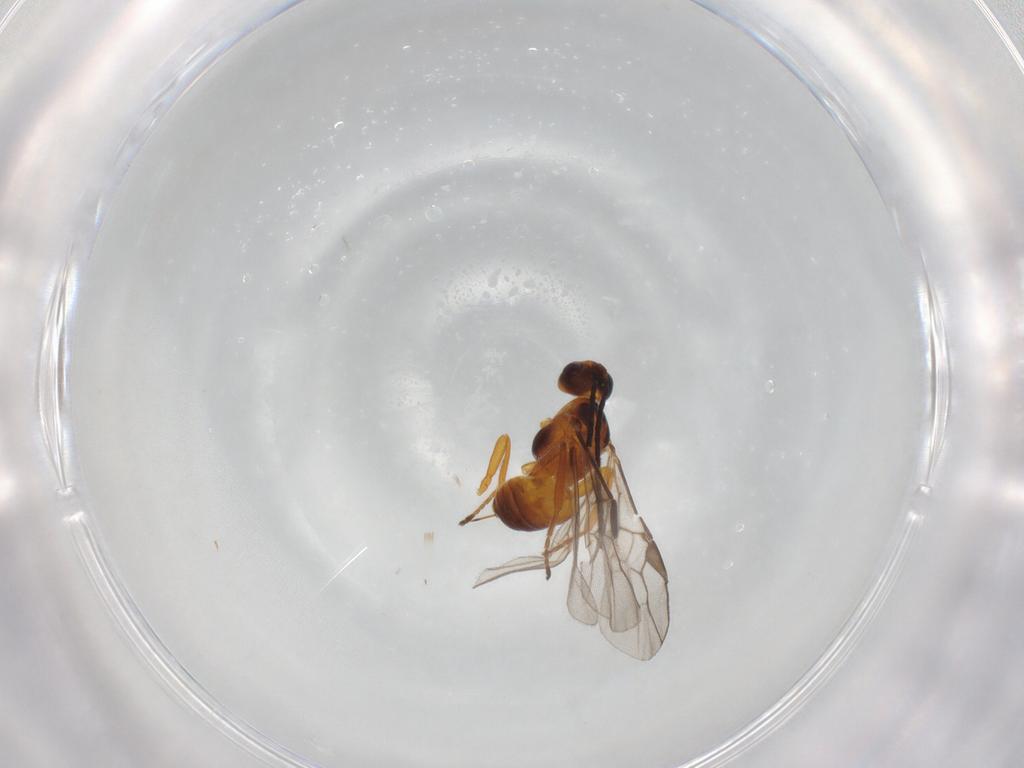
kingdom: Animalia
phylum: Arthropoda
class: Insecta
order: Hymenoptera
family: Braconidae
